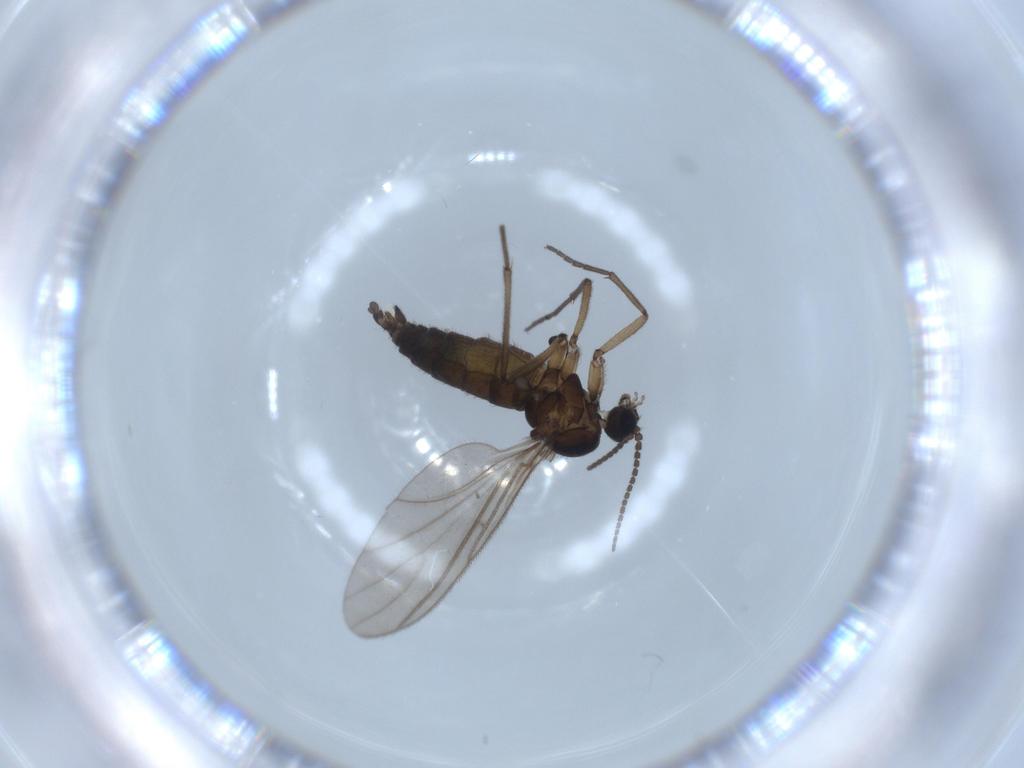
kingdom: Animalia
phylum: Arthropoda
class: Insecta
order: Diptera
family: Sciaridae
